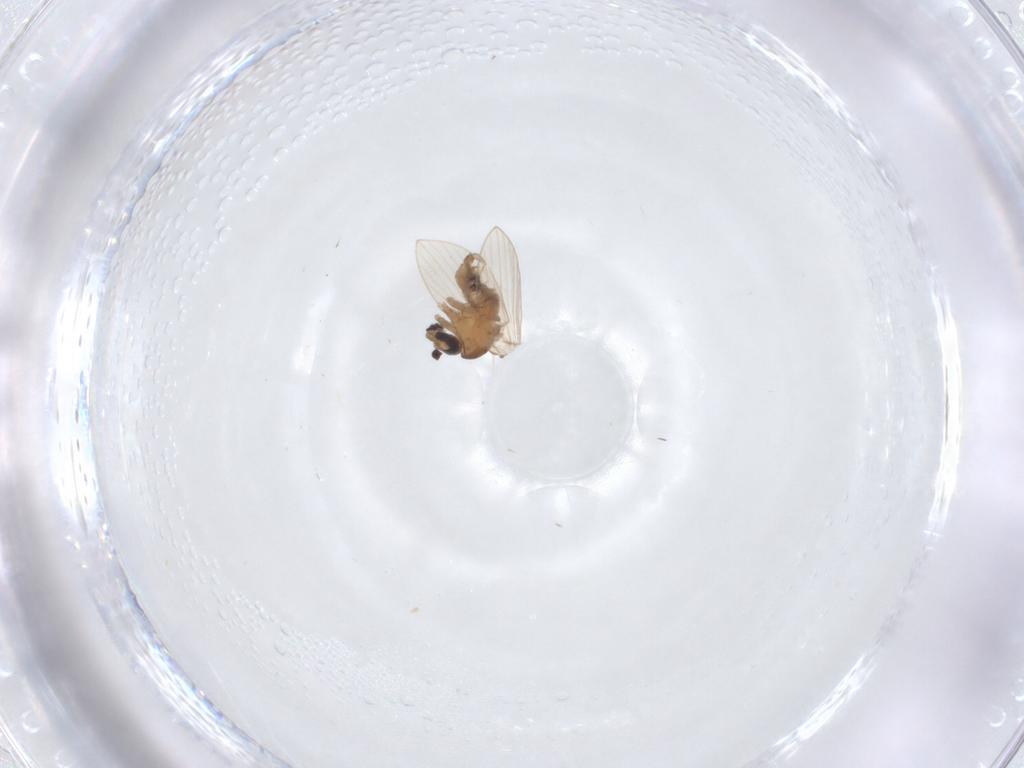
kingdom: Animalia
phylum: Arthropoda
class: Insecta
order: Diptera
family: Psychodidae
